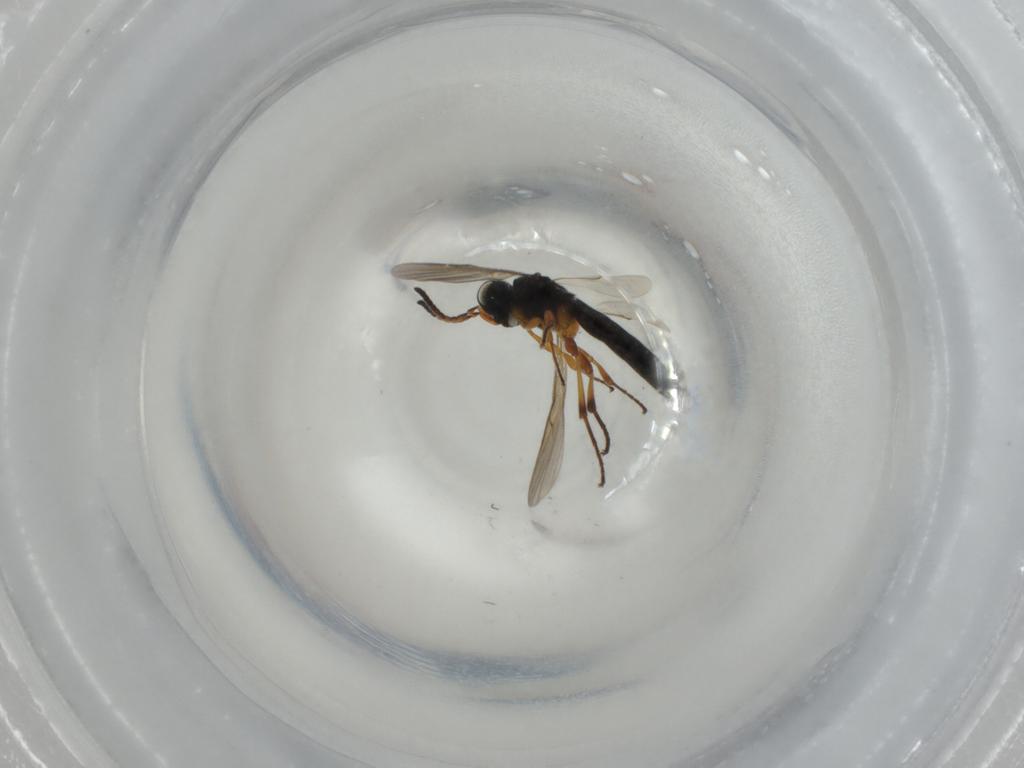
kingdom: Animalia
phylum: Arthropoda
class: Insecta
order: Hymenoptera
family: Scelionidae
